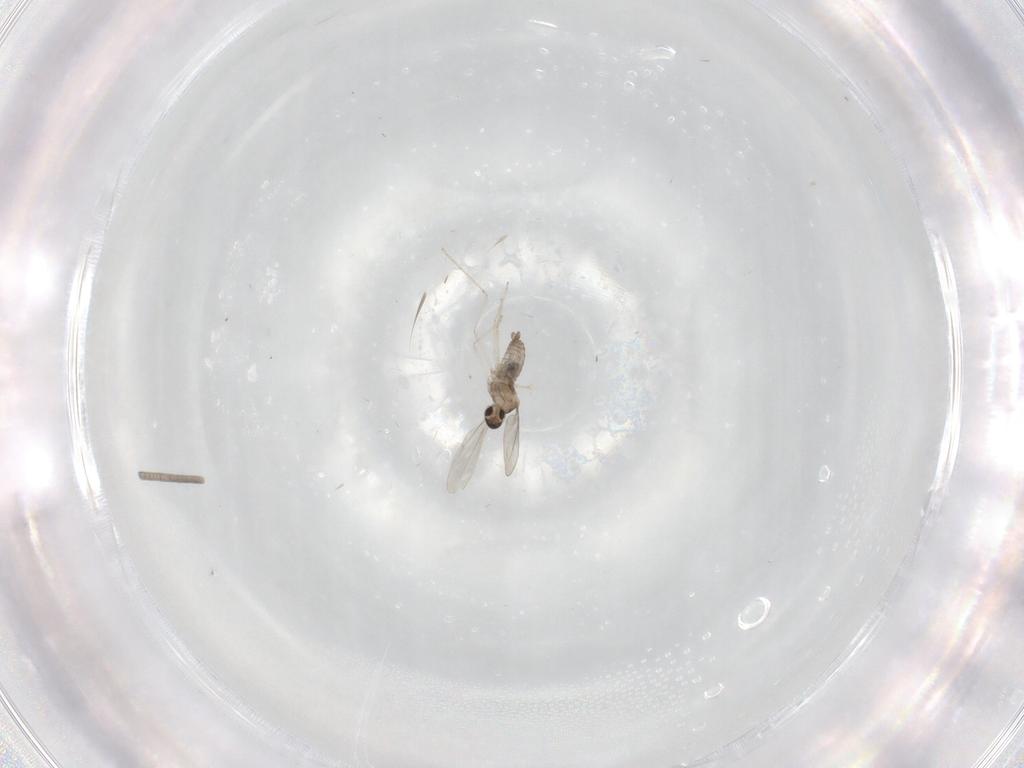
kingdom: Animalia
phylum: Arthropoda
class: Insecta
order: Diptera
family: Cecidomyiidae
